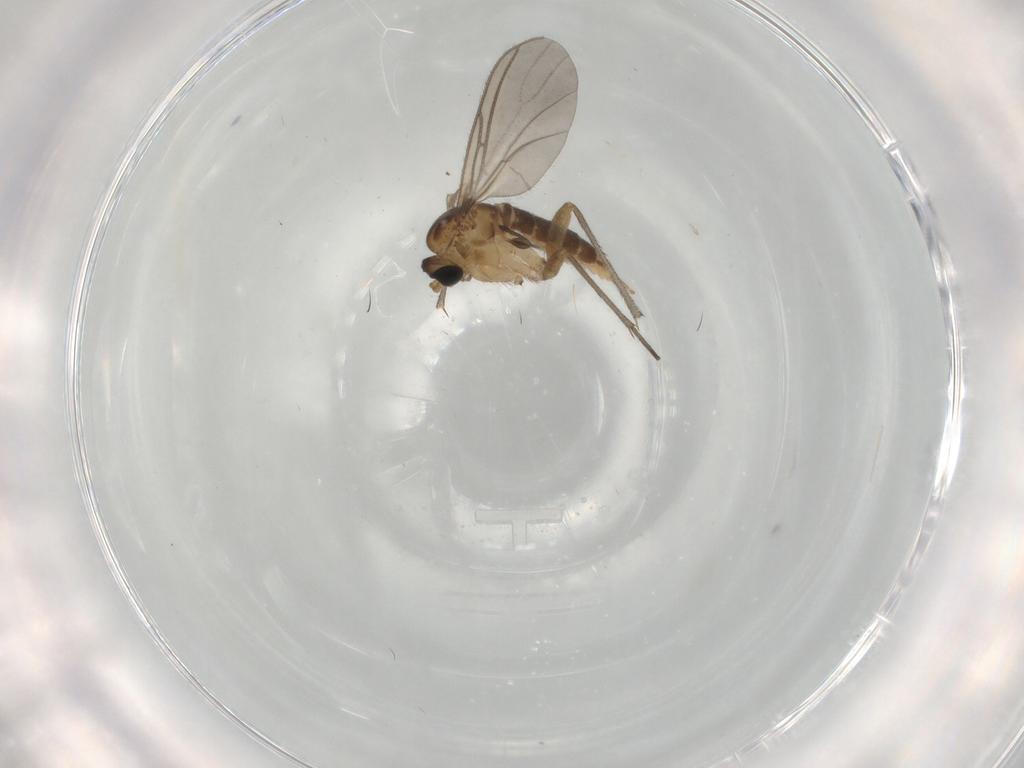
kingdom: Animalia
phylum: Arthropoda
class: Insecta
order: Diptera
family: Sciaridae
